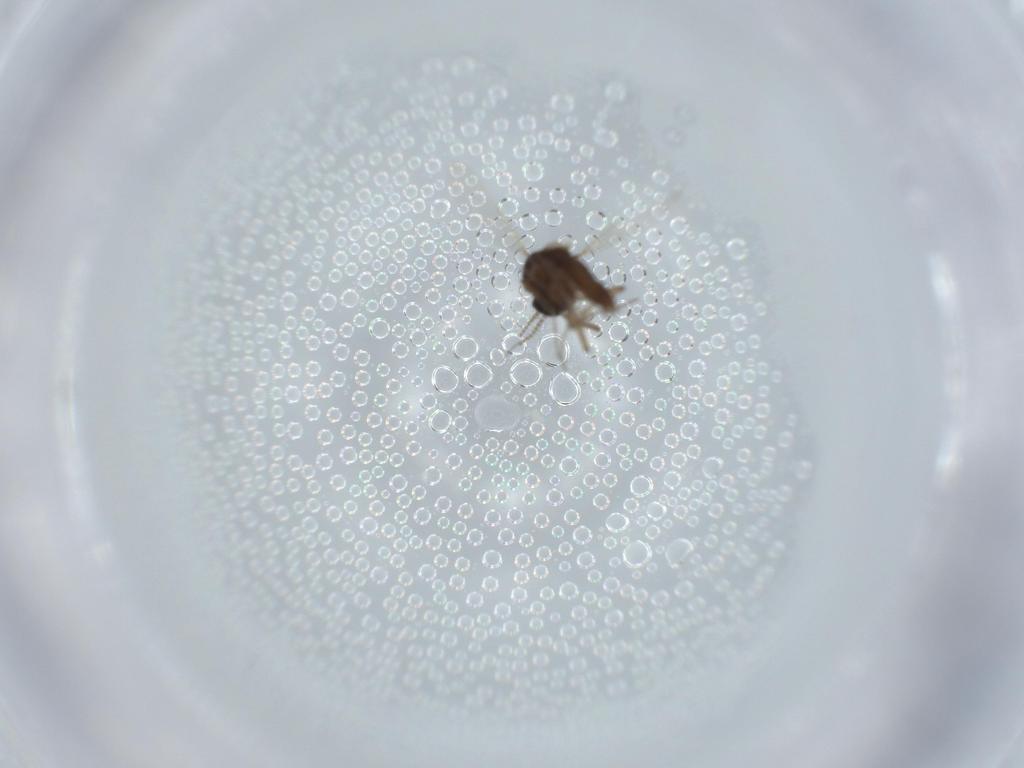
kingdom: Animalia
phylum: Arthropoda
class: Insecta
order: Diptera
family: Chironomidae
